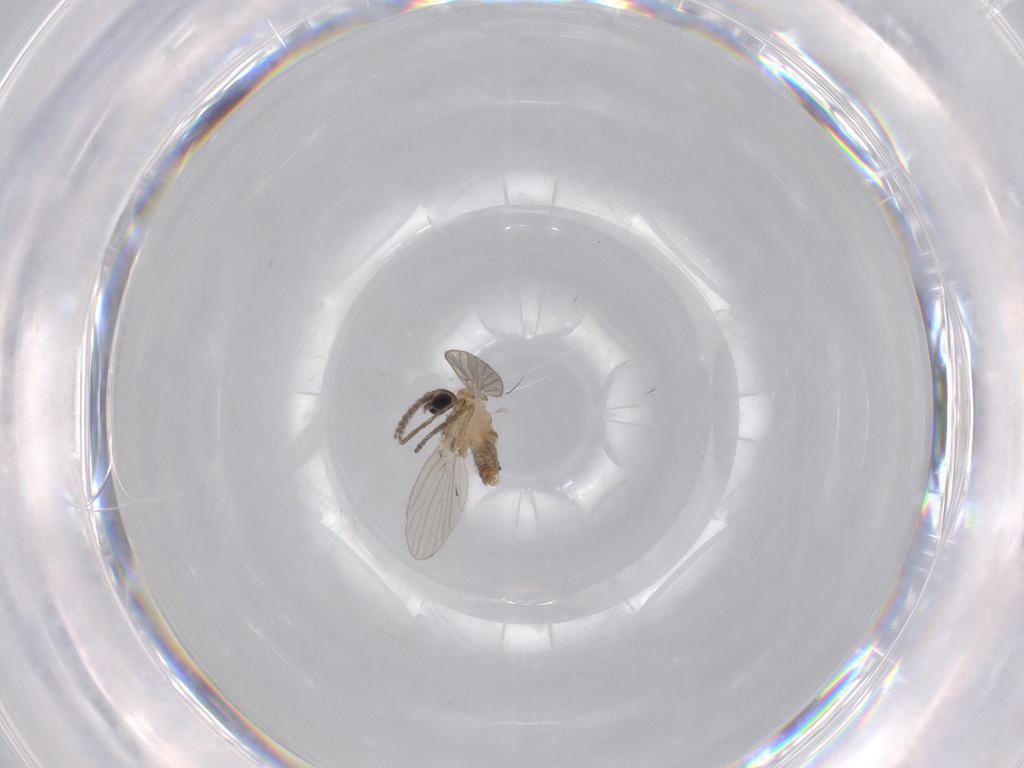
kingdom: Animalia
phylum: Arthropoda
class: Insecta
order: Diptera
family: Psychodidae
